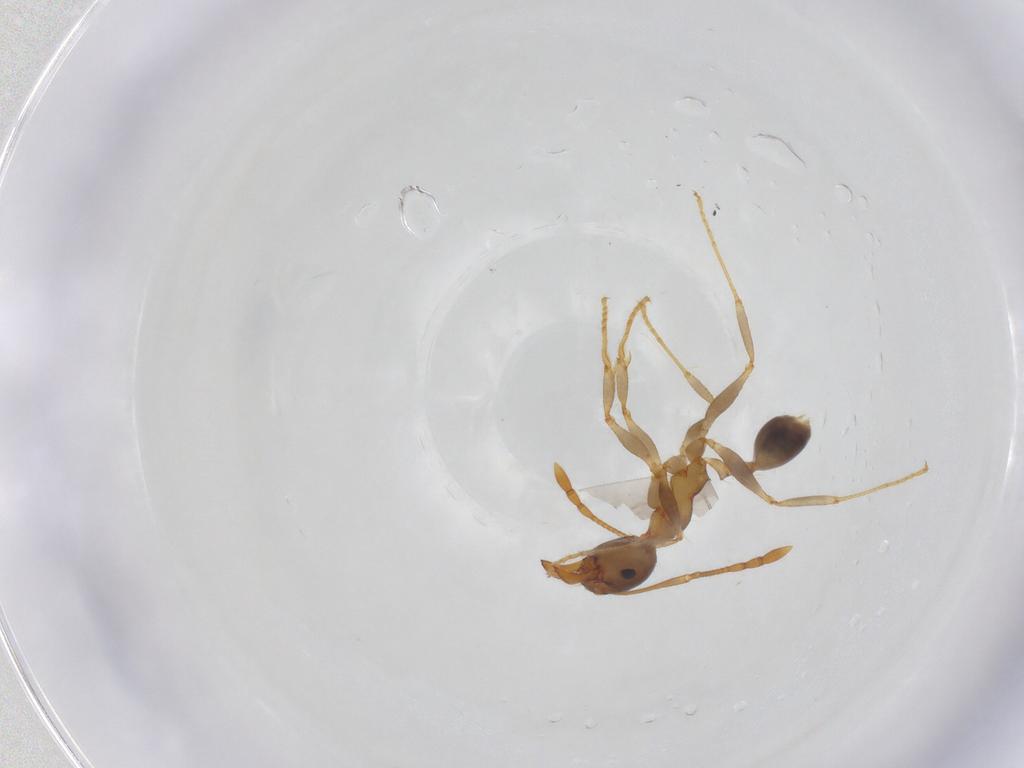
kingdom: Animalia
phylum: Arthropoda
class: Insecta
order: Hymenoptera
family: Formicidae
